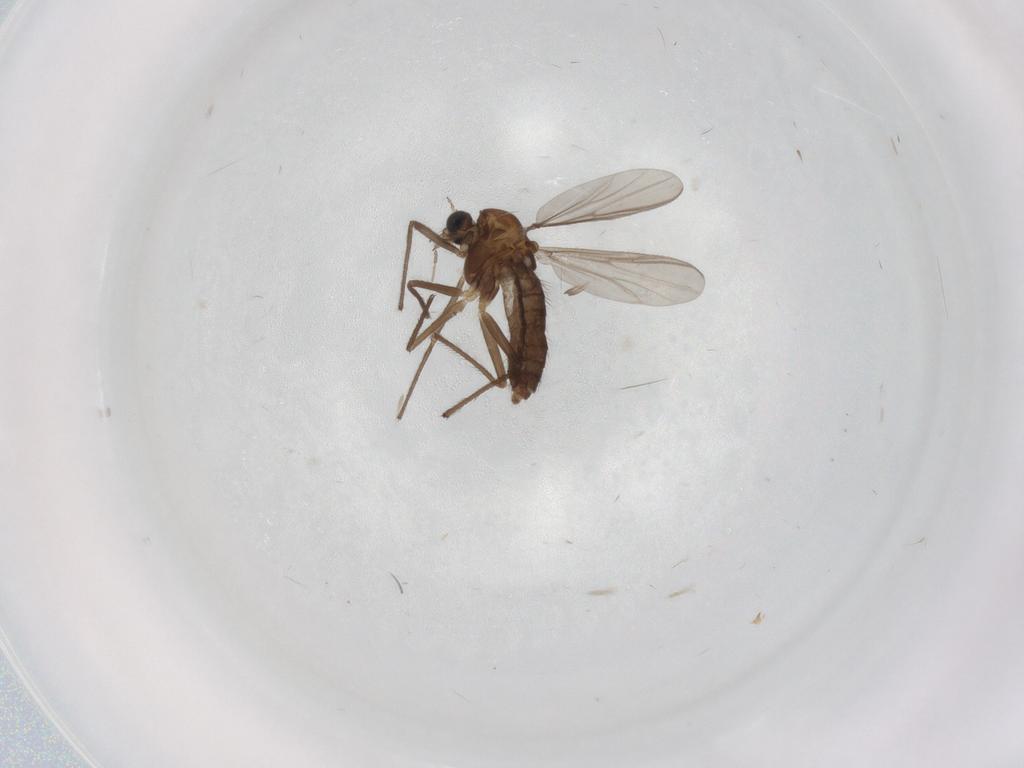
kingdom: Animalia
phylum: Arthropoda
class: Insecta
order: Diptera
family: Chironomidae
